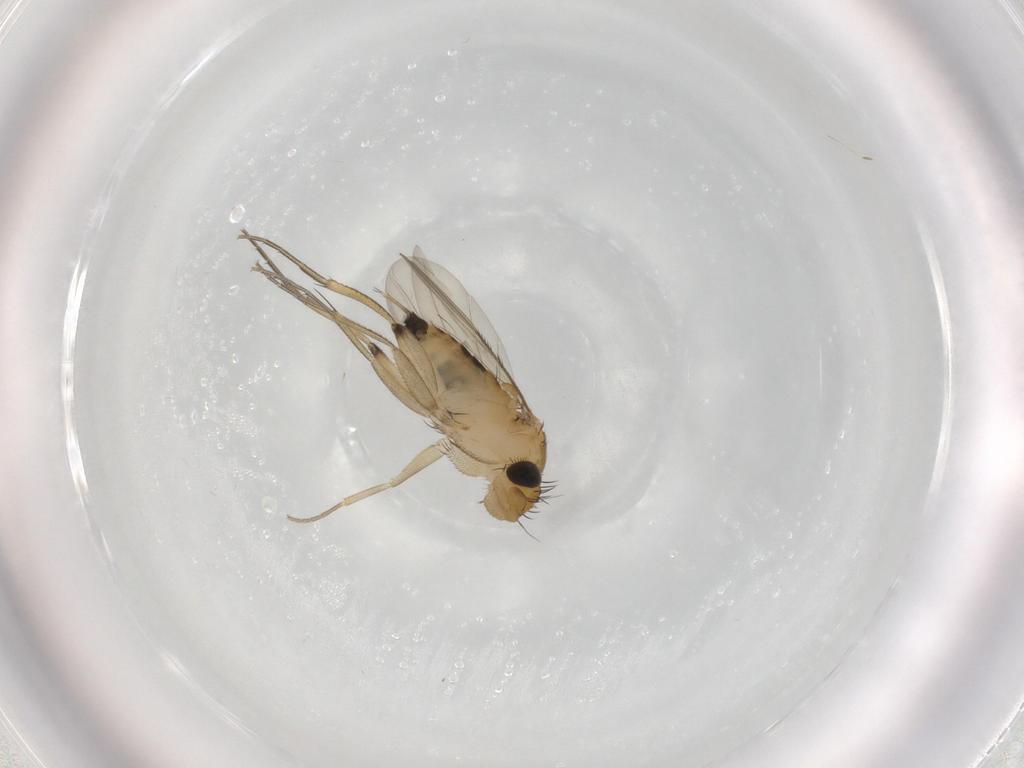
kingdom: Animalia
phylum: Arthropoda
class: Insecta
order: Diptera
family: Phoridae
